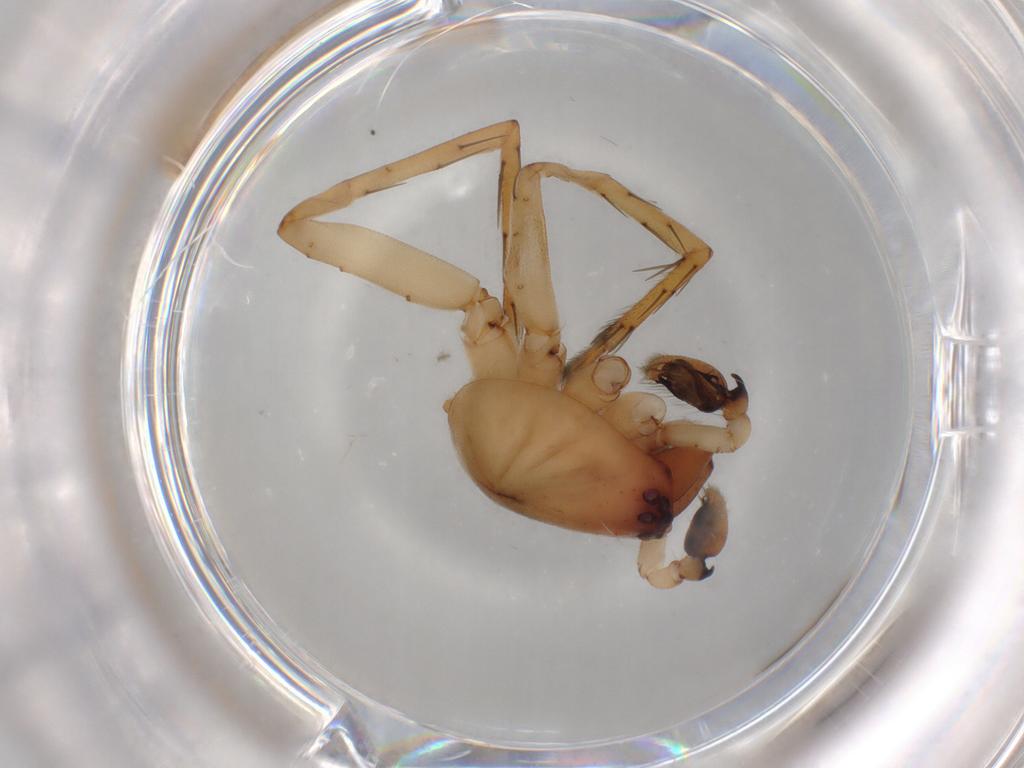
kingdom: Animalia
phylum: Arthropoda
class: Arachnida
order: Araneae
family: Clubionidae
